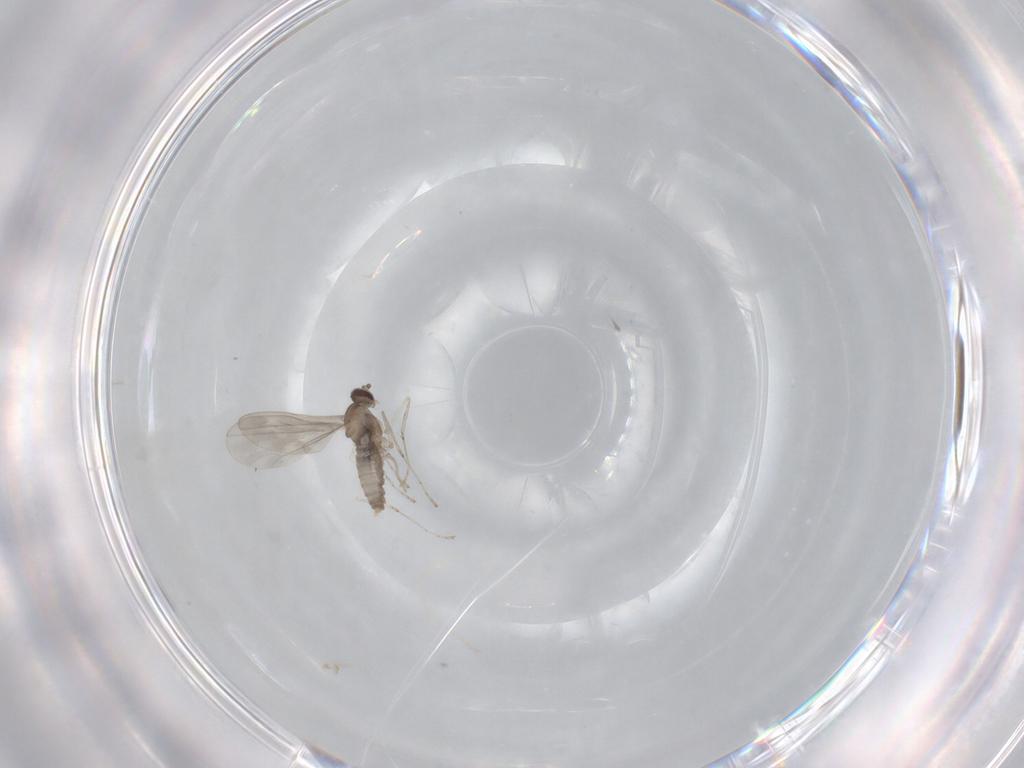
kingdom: Animalia
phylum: Arthropoda
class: Insecta
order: Diptera
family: Cecidomyiidae
